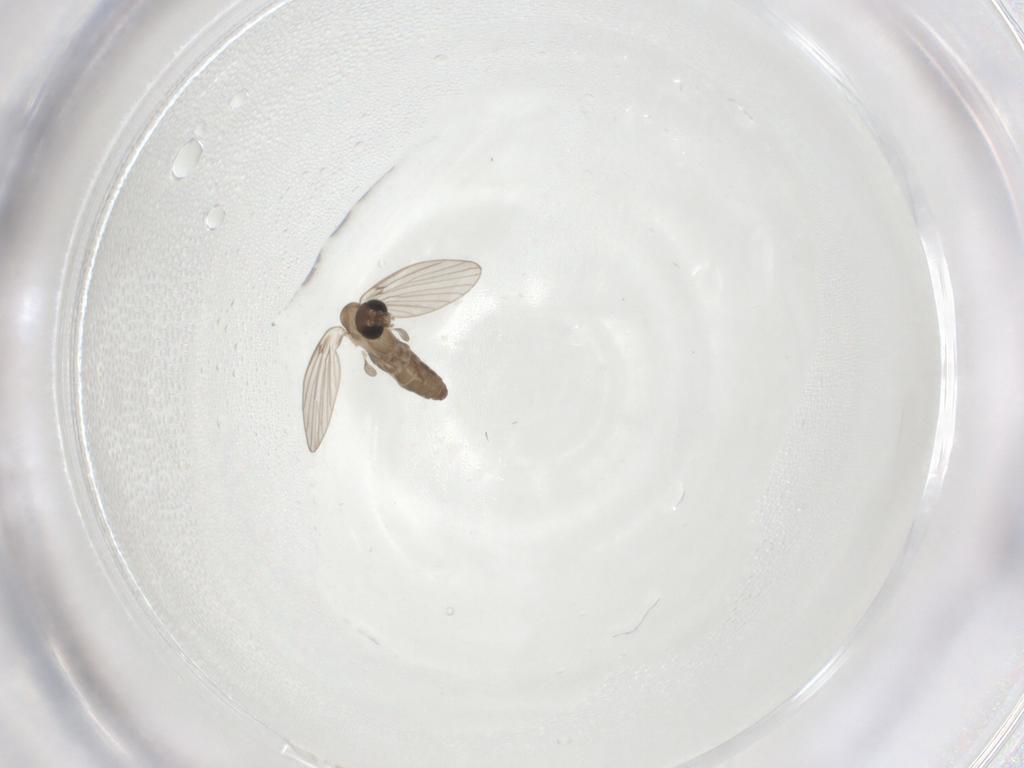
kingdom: Animalia
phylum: Arthropoda
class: Insecta
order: Diptera
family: Psychodidae
